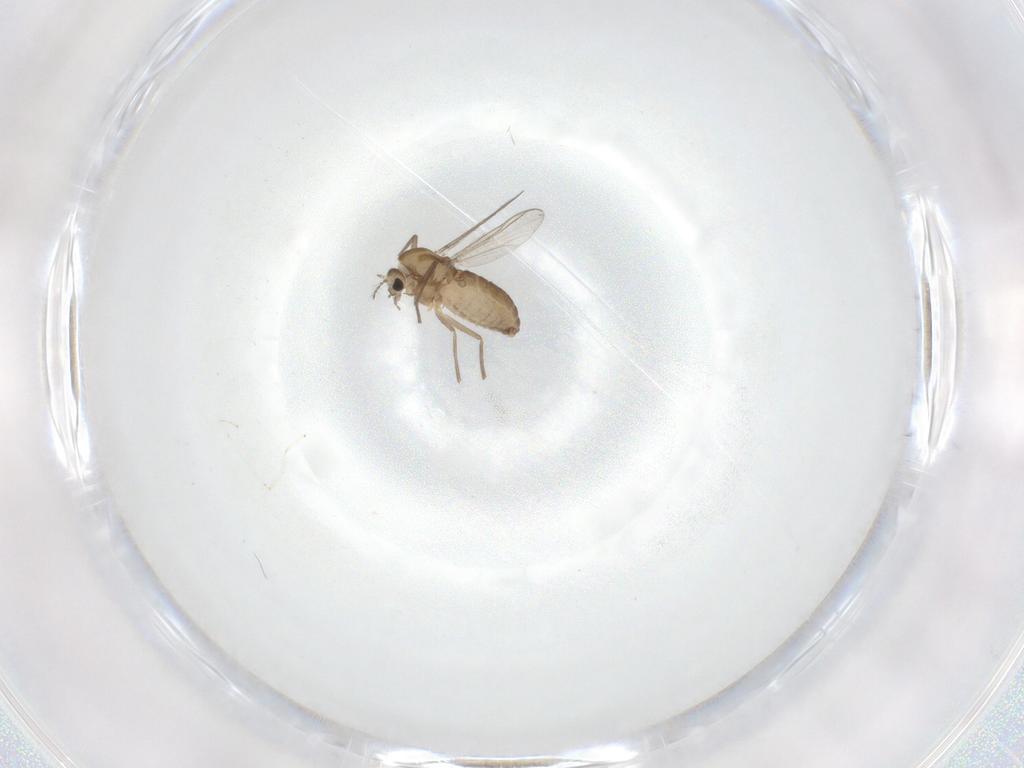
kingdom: Animalia
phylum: Arthropoda
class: Insecta
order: Diptera
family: Chironomidae
